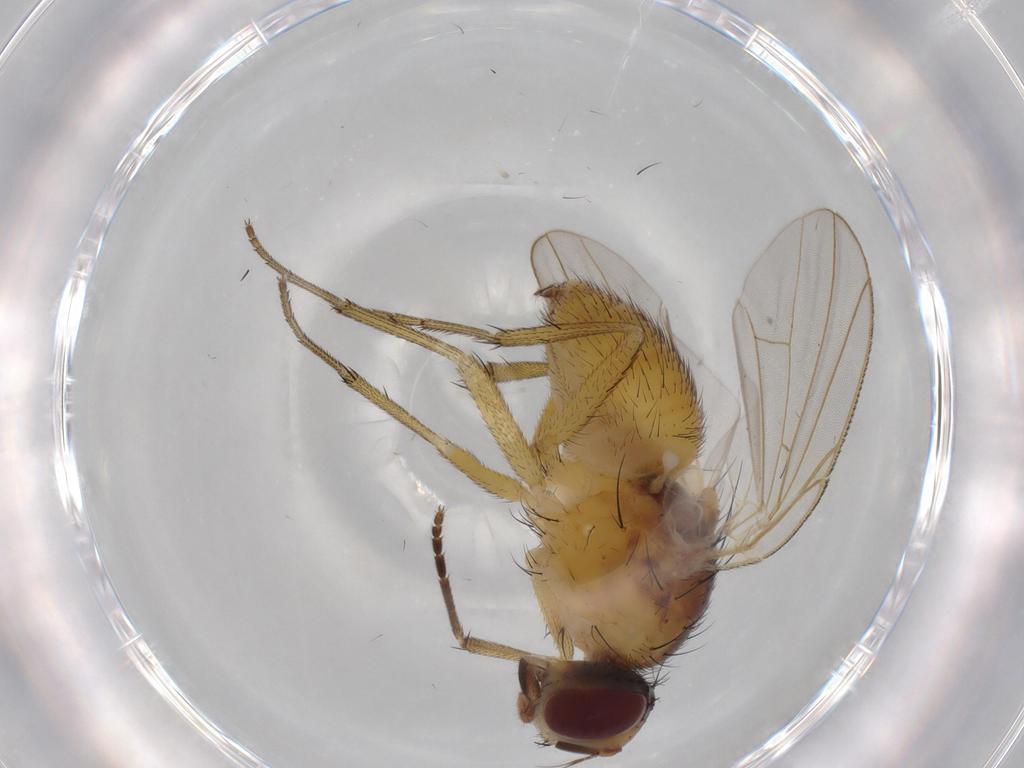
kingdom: Animalia
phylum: Arthropoda
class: Insecta
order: Diptera
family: Muscidae
